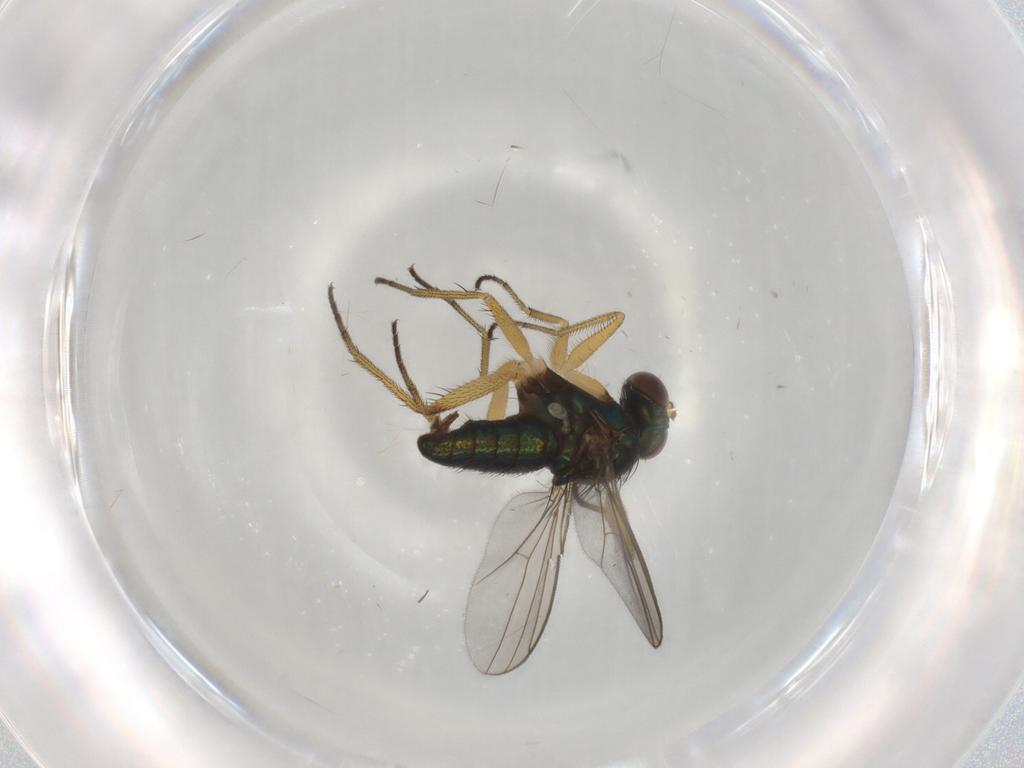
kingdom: Animalia
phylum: Arthropoda
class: Insecta
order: Diptera
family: Dolichopodidae
